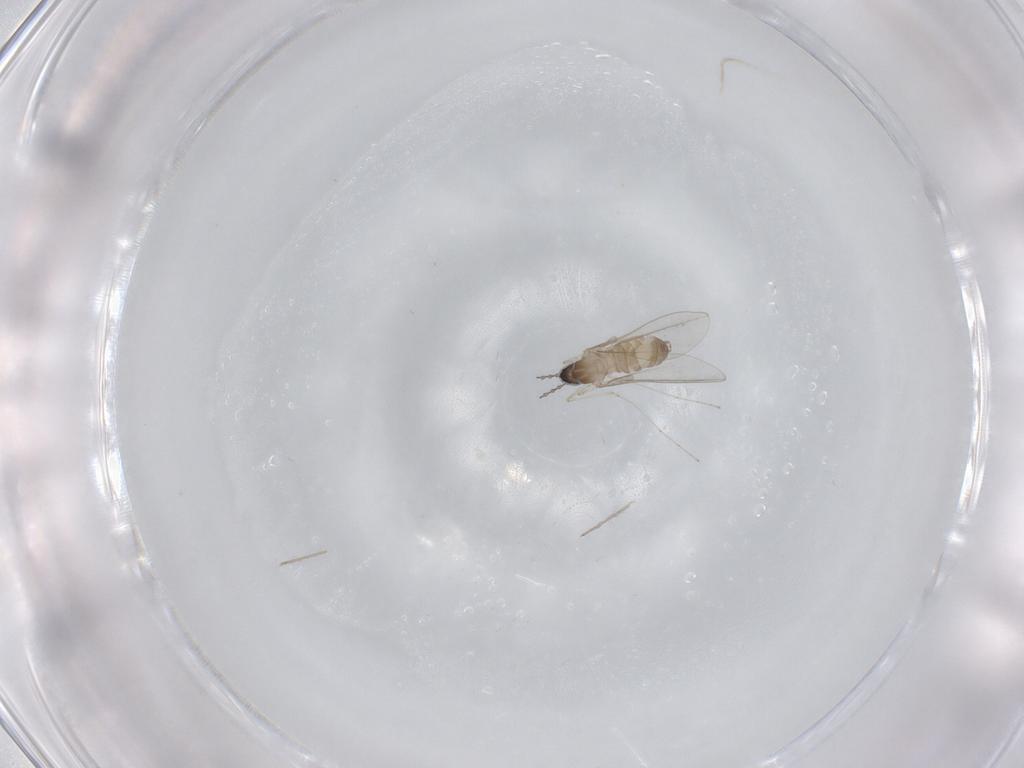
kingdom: Animalia
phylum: Arthropoda
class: Insecta
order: Diptera
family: Cecidomyiidae
